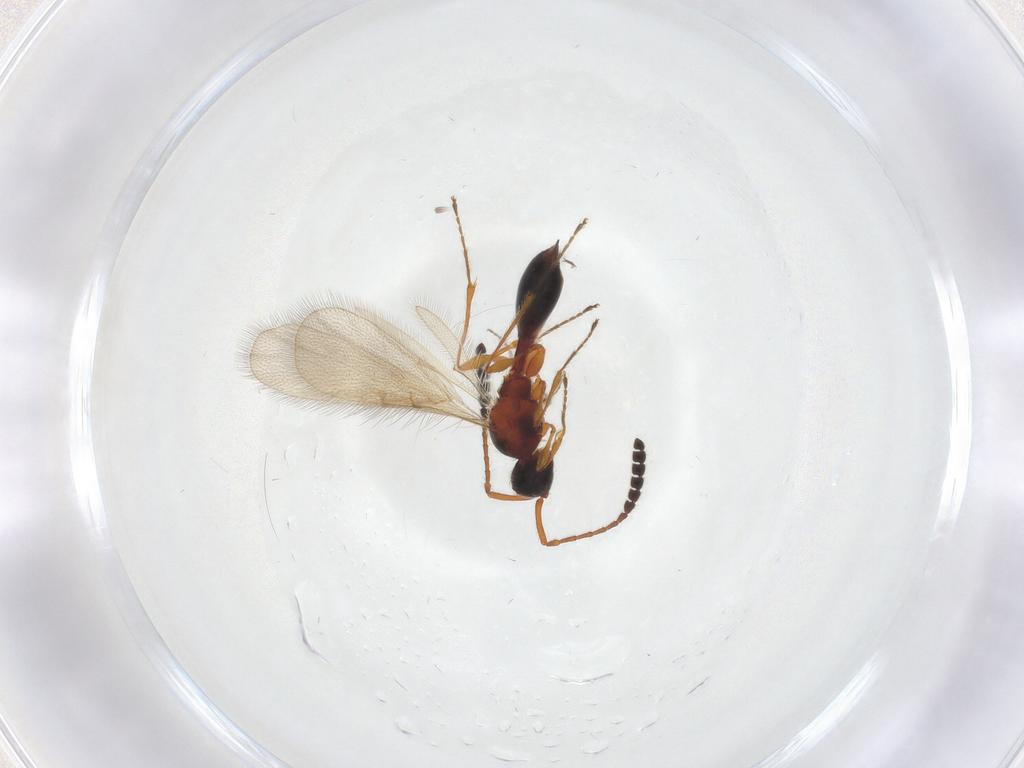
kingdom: Animalia
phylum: Arthropoda
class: Insecta
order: Hymenoptera
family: Diapriidae
